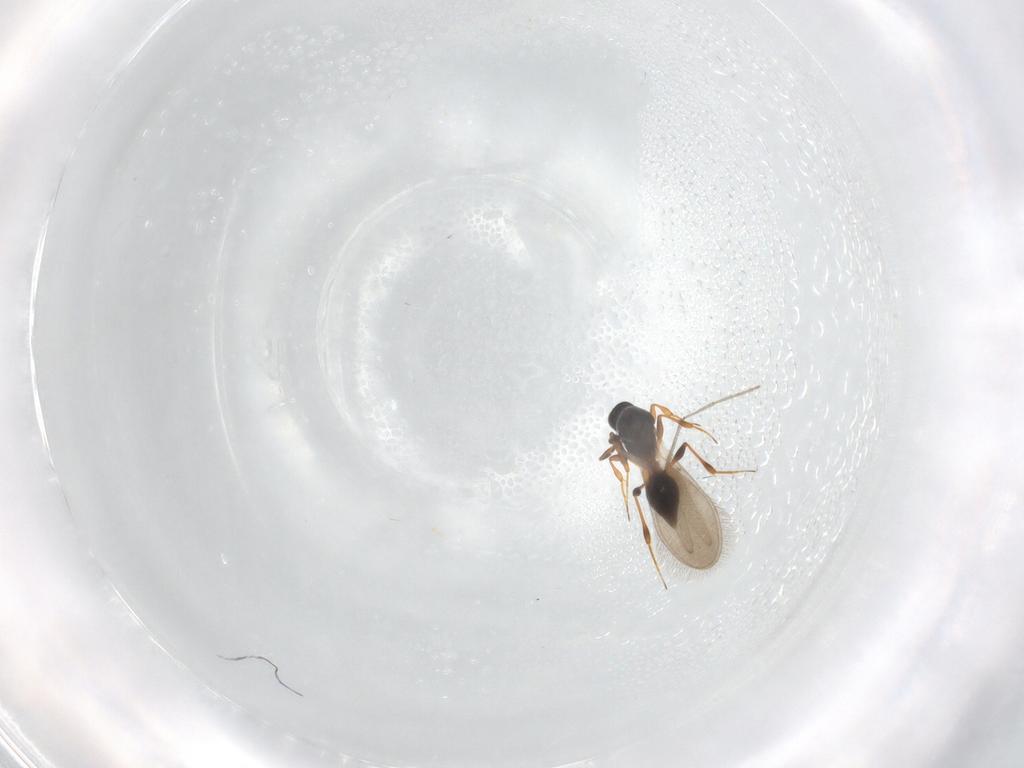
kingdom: Animalia
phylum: Arthropoda
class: Insecta
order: Hymenoptera
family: Platygastridae
